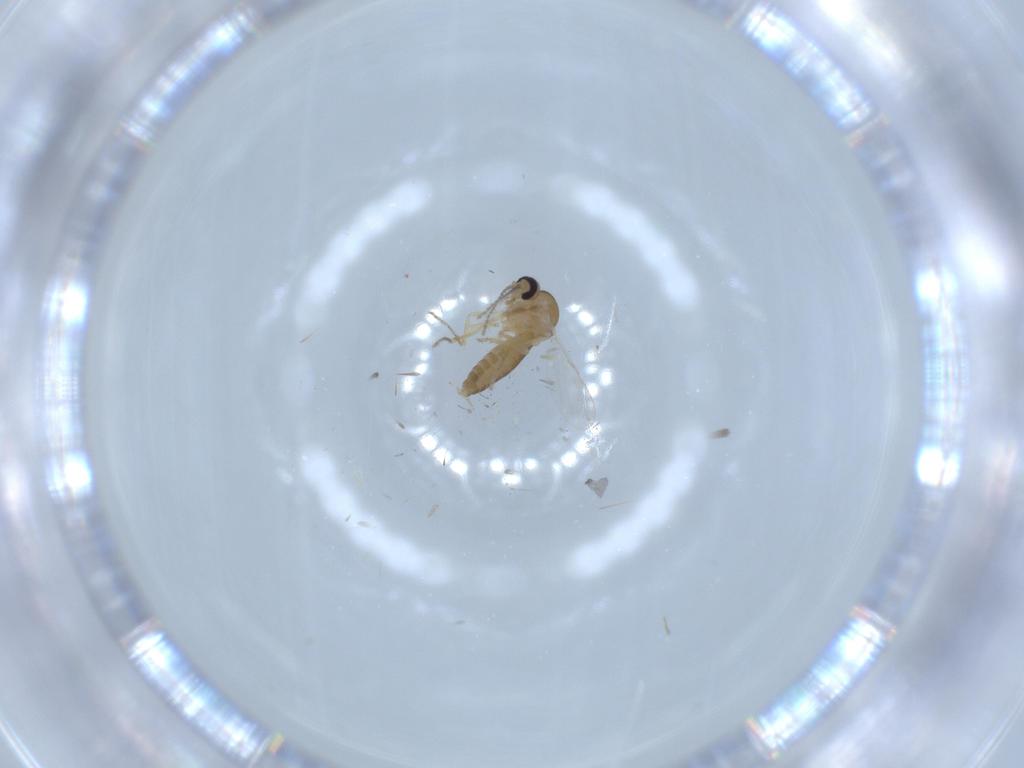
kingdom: Animalia
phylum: Arthropoda
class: Insecta
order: Diptera
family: Ceratopogonidae
